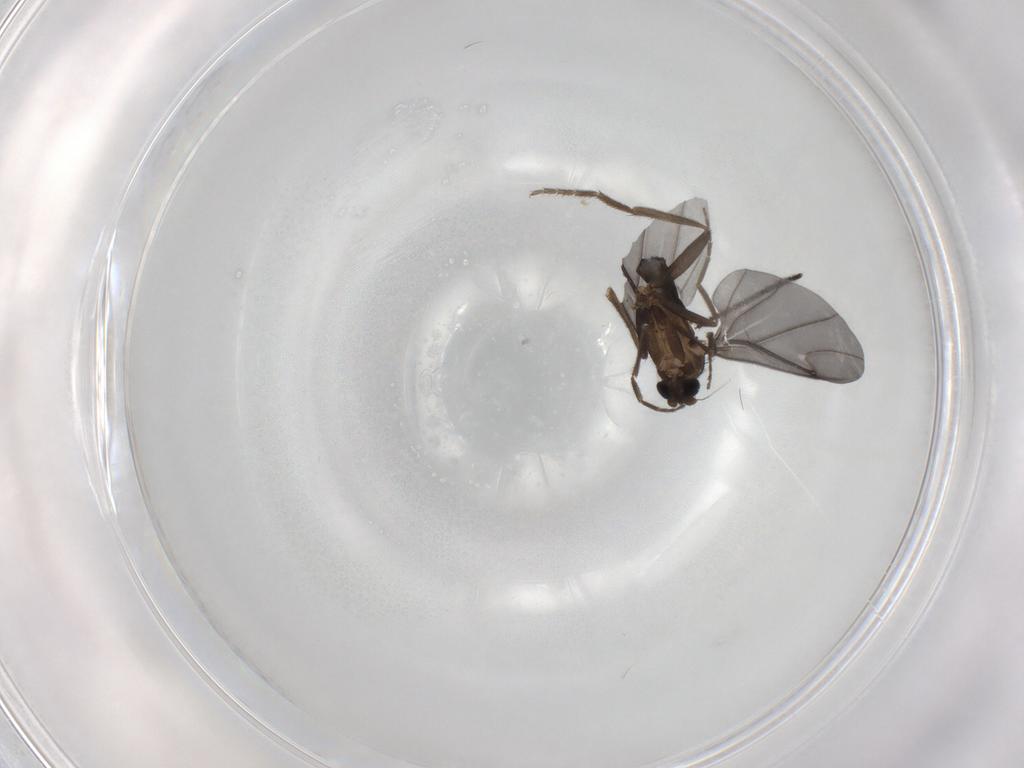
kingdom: Animalia
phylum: Arthropoda
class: Insecta
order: Diptera
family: Phoridae
